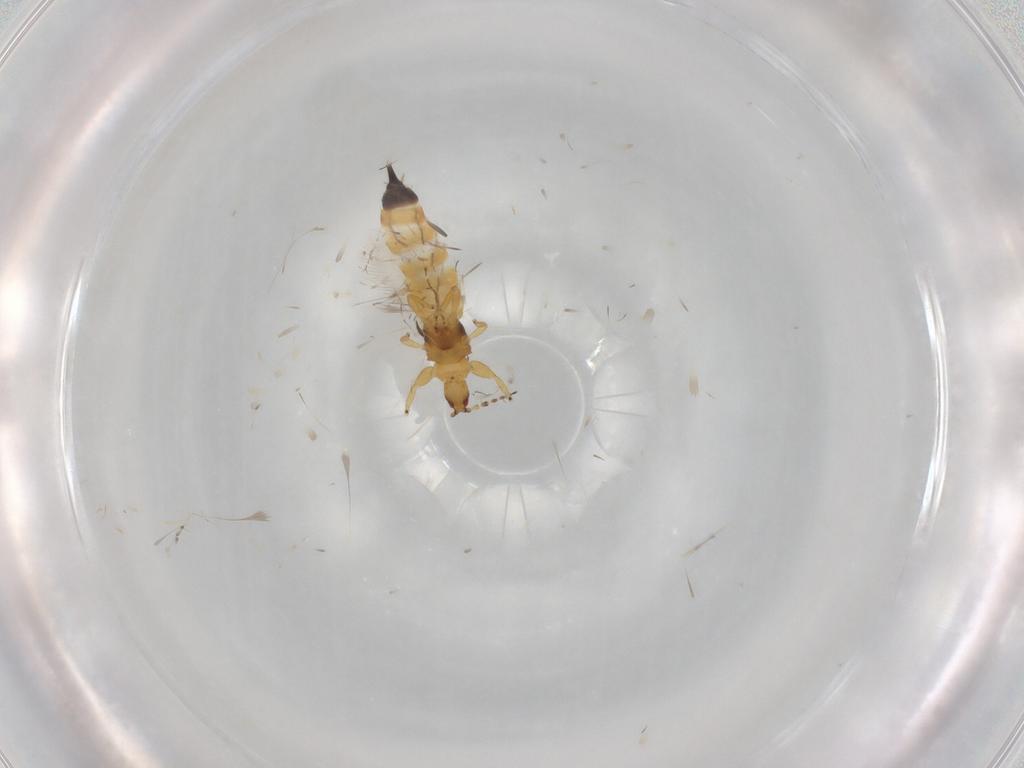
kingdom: Animalia
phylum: Arthropoda
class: Insecta
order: Thysanoptera
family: Phlaeothripidae
